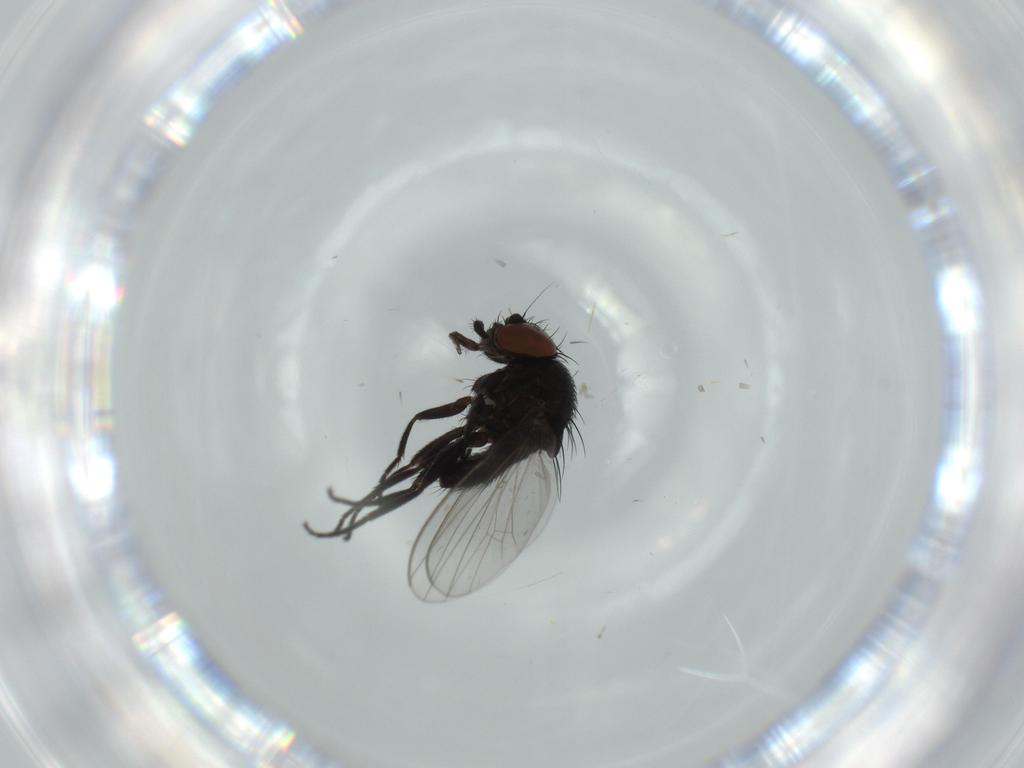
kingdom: Animalia
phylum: Arthropoda
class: Insecta
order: Diptera
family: Milichiidae
